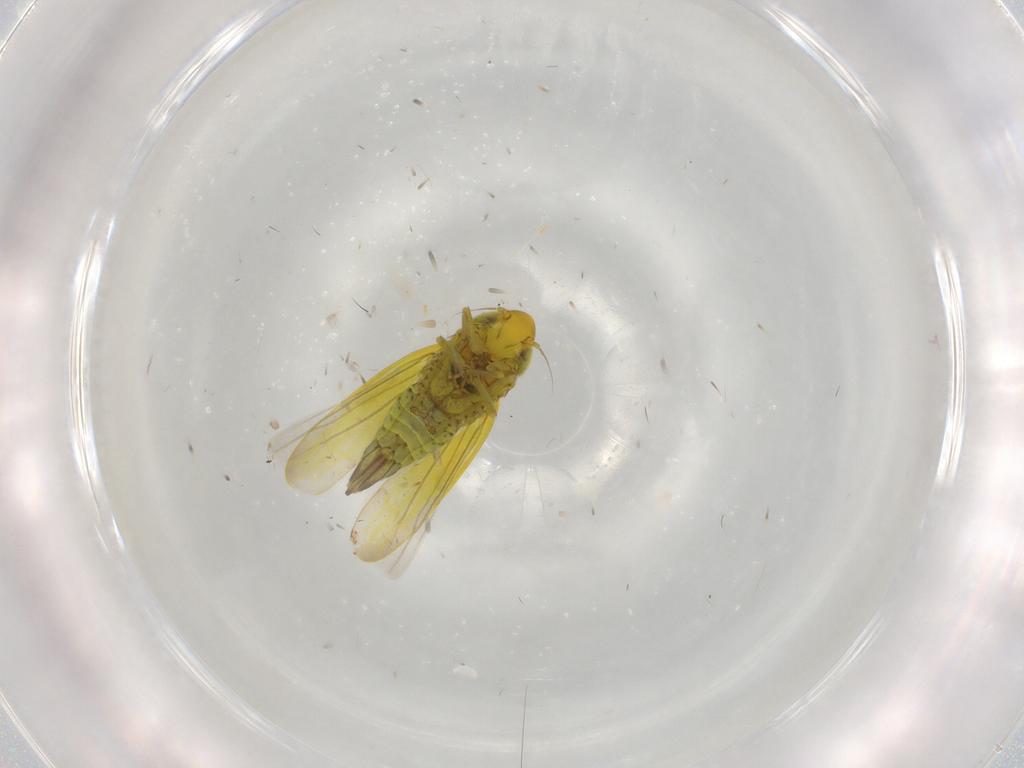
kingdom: Animalia
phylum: Arthropoda
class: Insecta
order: Hemiptera
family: Cicadellidae
